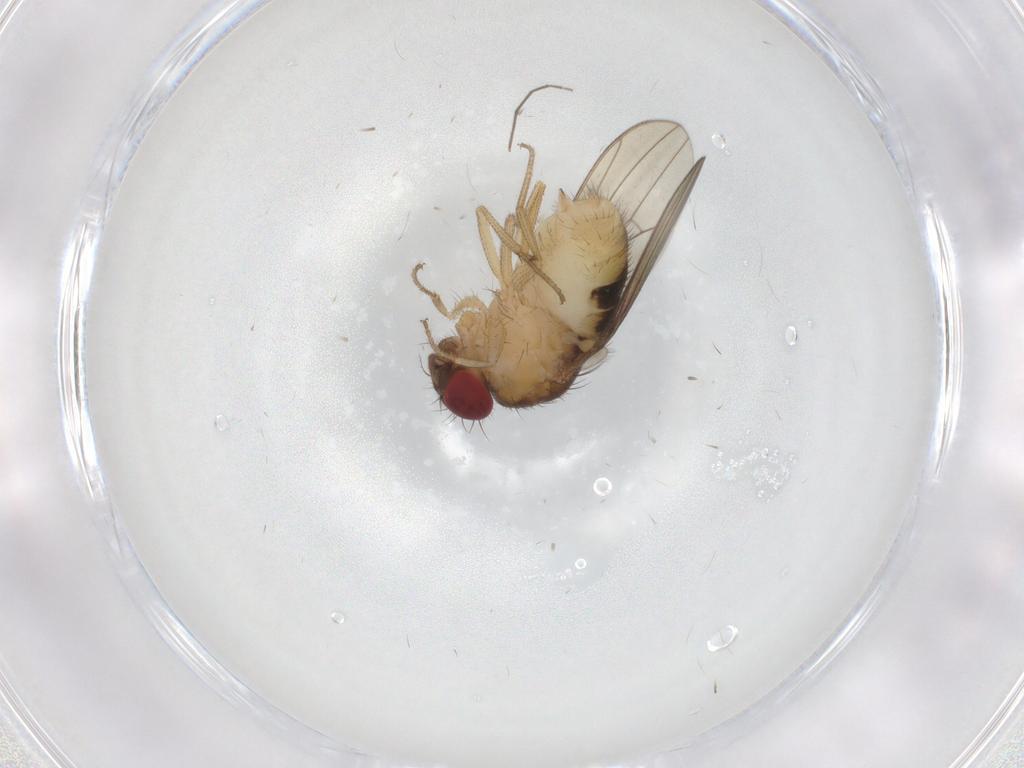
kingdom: Animalia
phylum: Arthropoda
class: Insecta
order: Diptera
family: Drosophilidae
